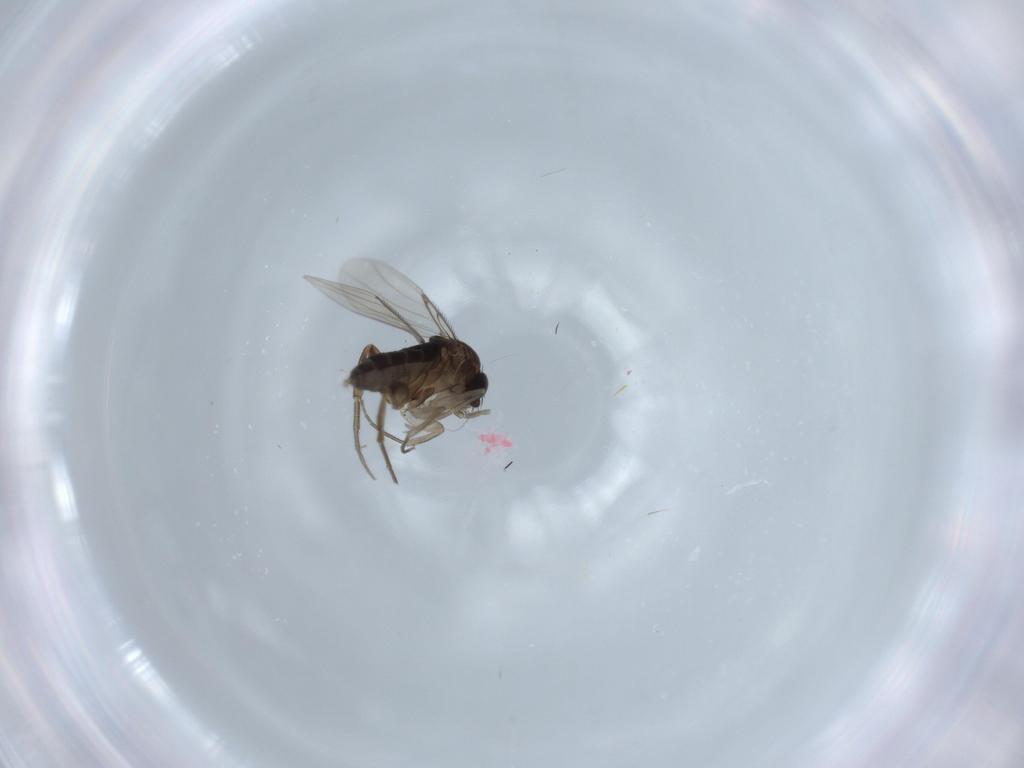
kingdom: Animalia
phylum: Arthropoda
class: Insecta
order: Diptera
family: Phoridae
